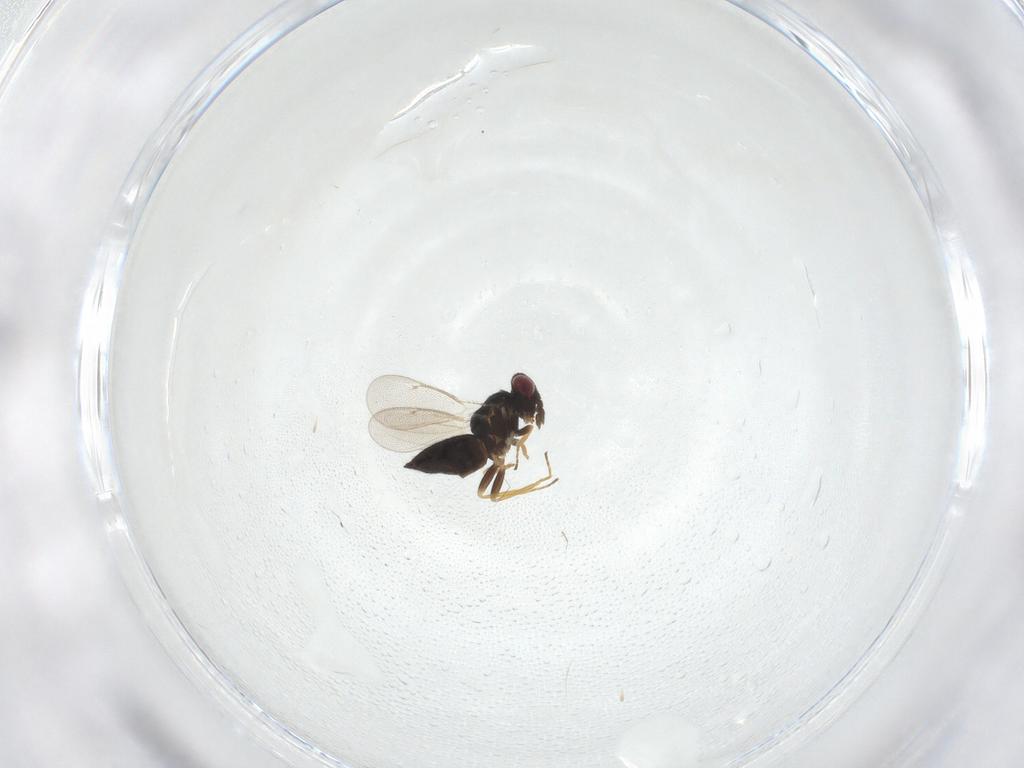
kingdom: Animalia
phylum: Arthropoda
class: Insecta
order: Hymenoptera
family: Eulophidae
